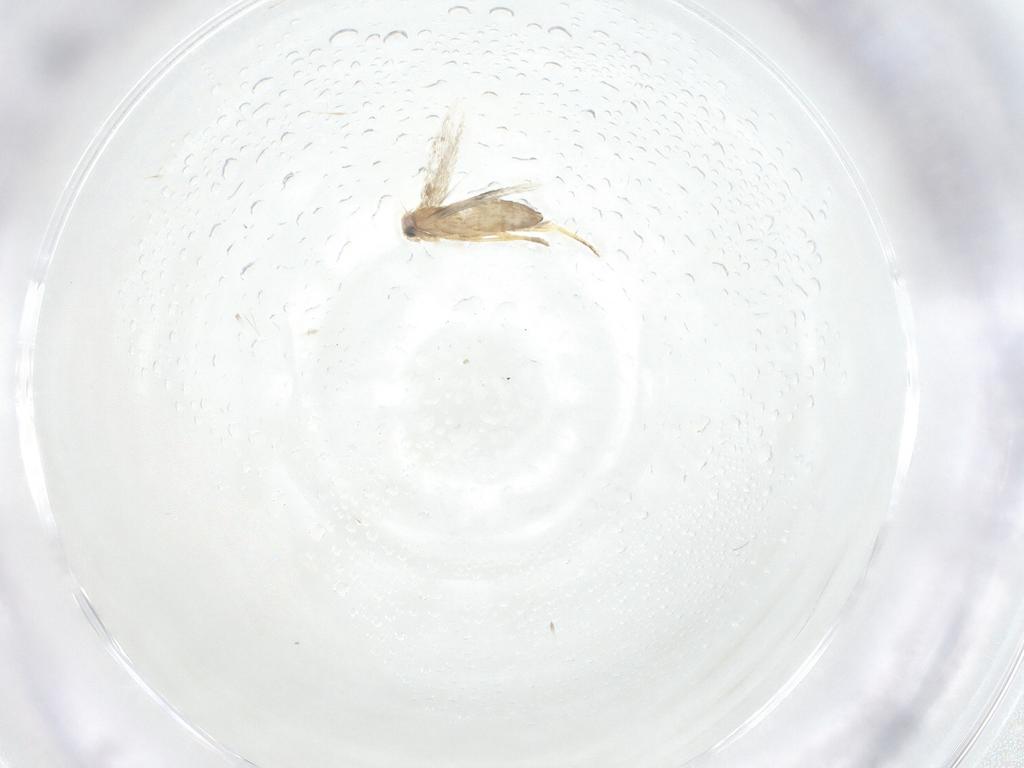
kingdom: Animalia
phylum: Arthropoda
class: Insecta
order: Lepidoptera
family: Nepticulidae
